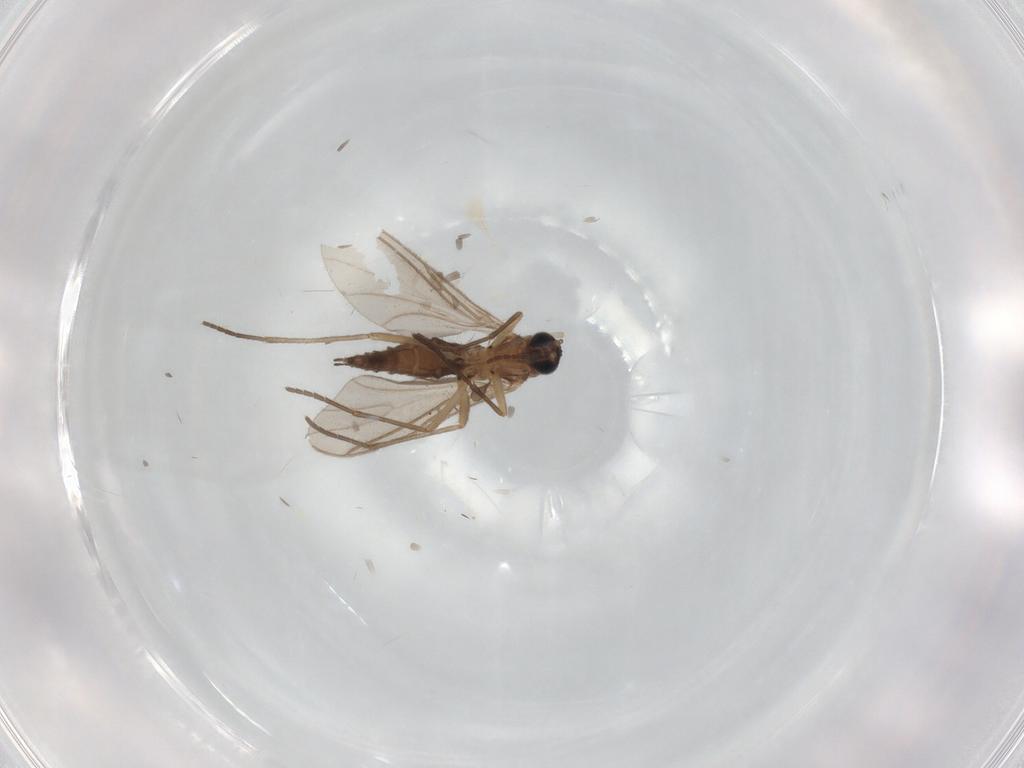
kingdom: Animalia
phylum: Arthropoda
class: Insecta
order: Diptera
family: Sciaridae
